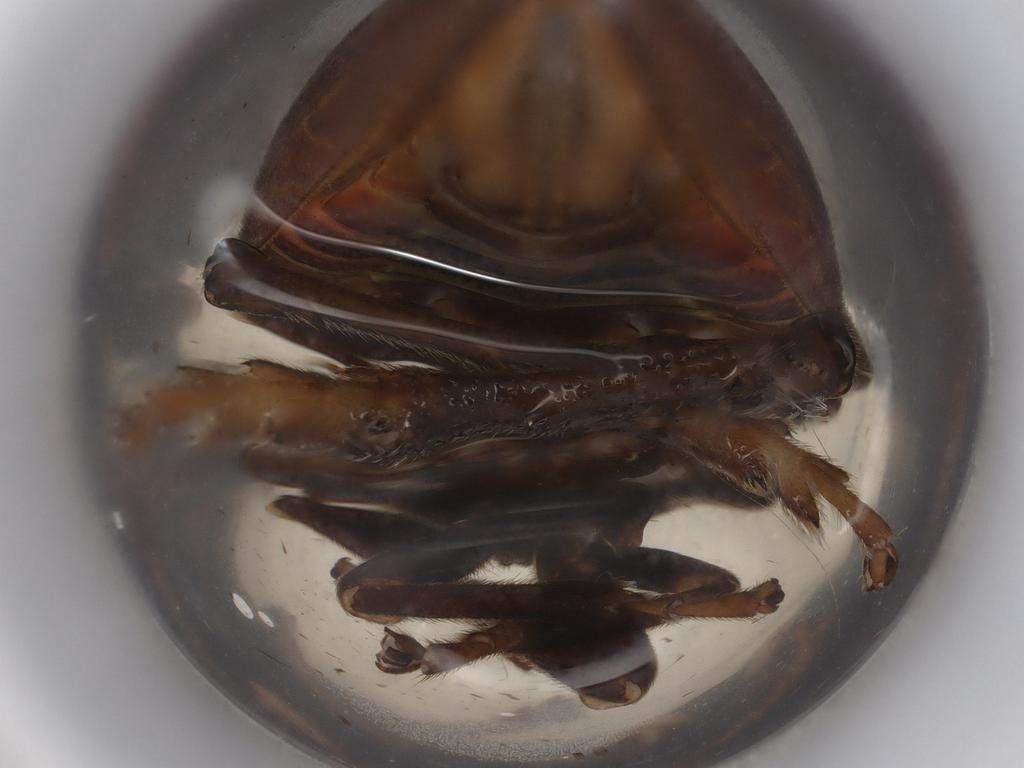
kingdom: Animalia
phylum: Arthropoda
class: Insecta
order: Hemiptera
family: Aphrophoridae
